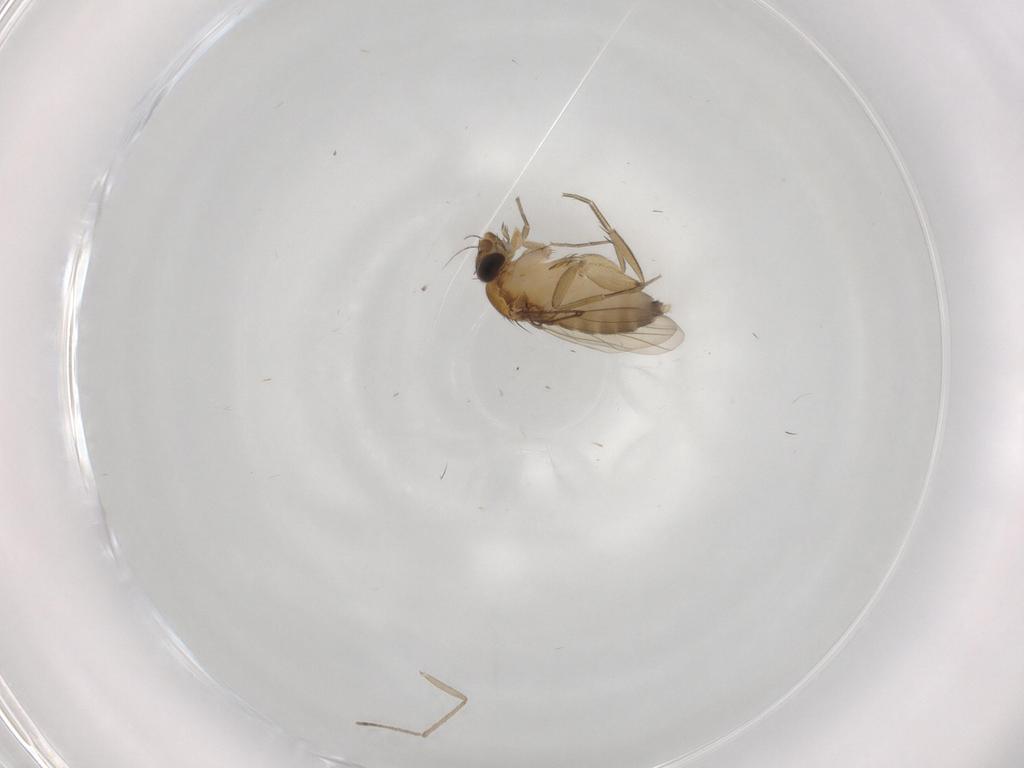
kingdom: Animalia
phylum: Arthropoda
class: Insecta
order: Diptera
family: Phoridae
